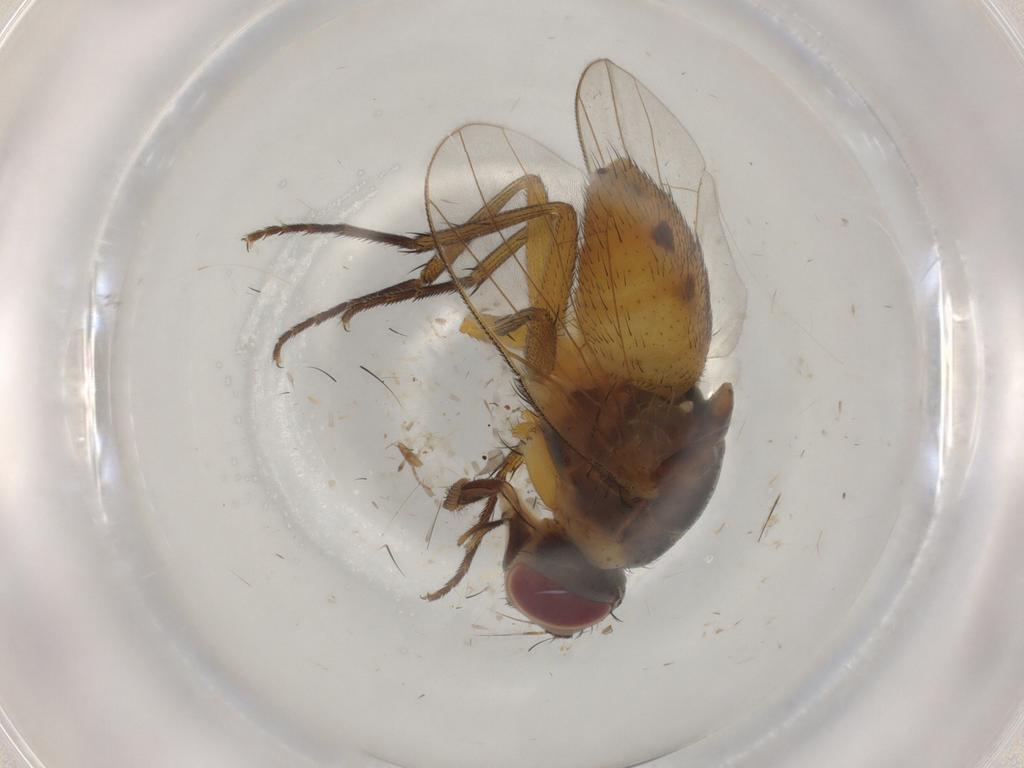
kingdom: Animalia
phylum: Arthropoda
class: Insecta
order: Diptera
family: Muscidae
